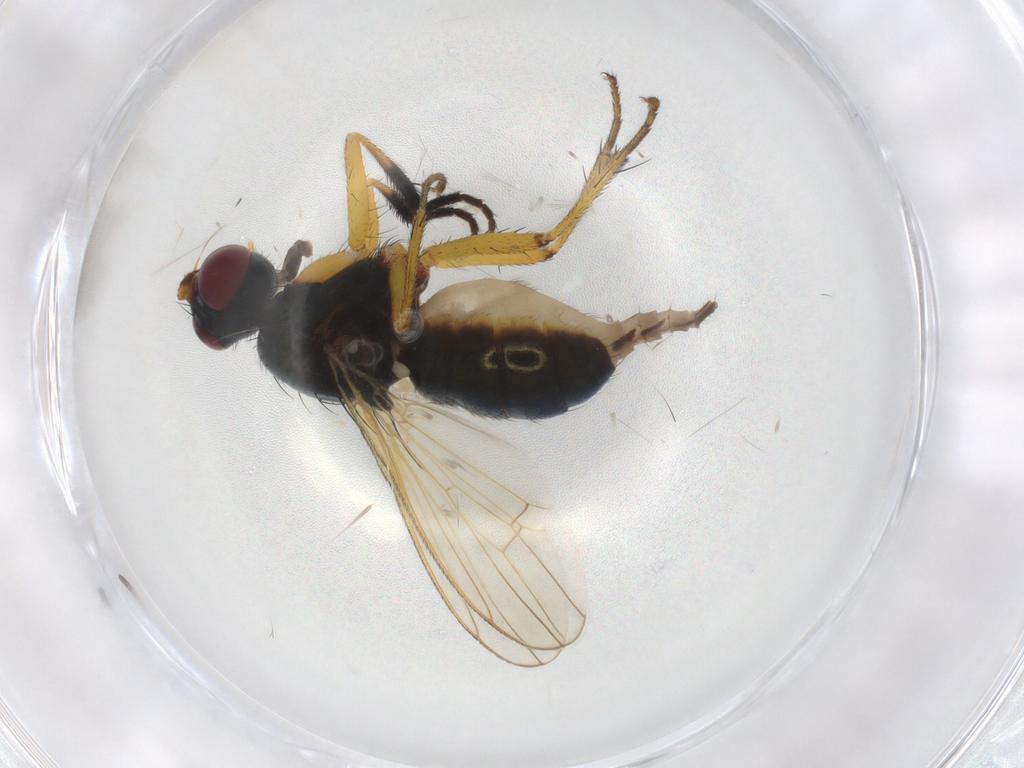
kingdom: Animalia
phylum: Arthropoda
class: Insecta
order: Diptera
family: Muscidae
